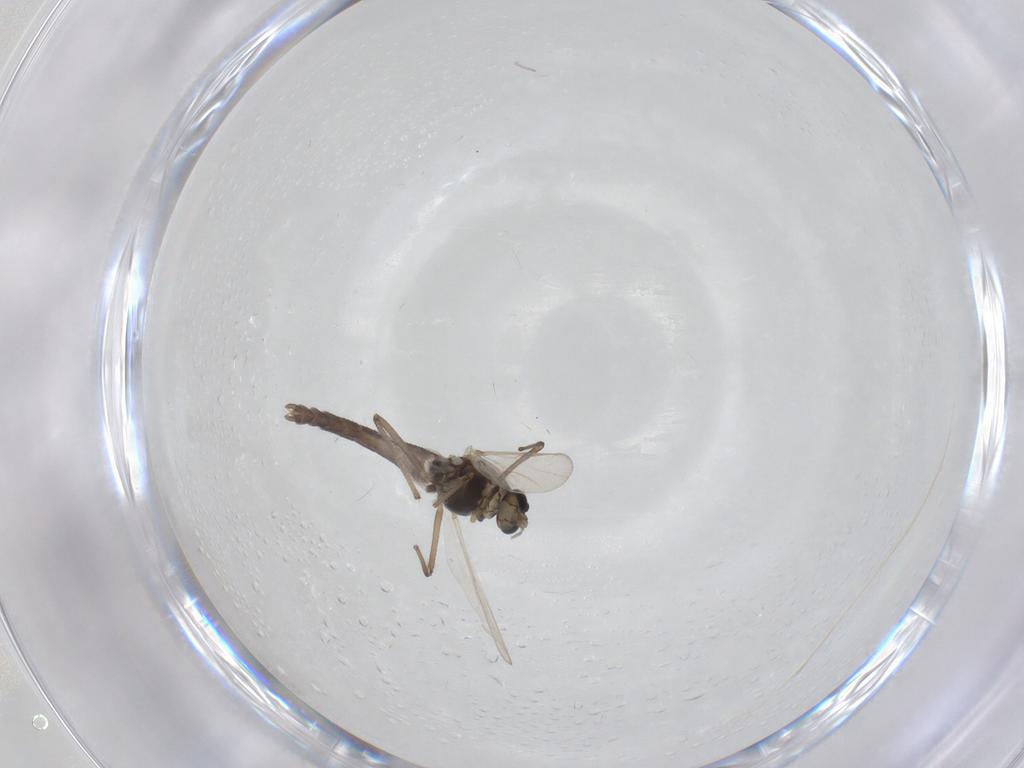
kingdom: Animalia
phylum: Arthropoda
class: Insecta
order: Diptera
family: Chironomidae
